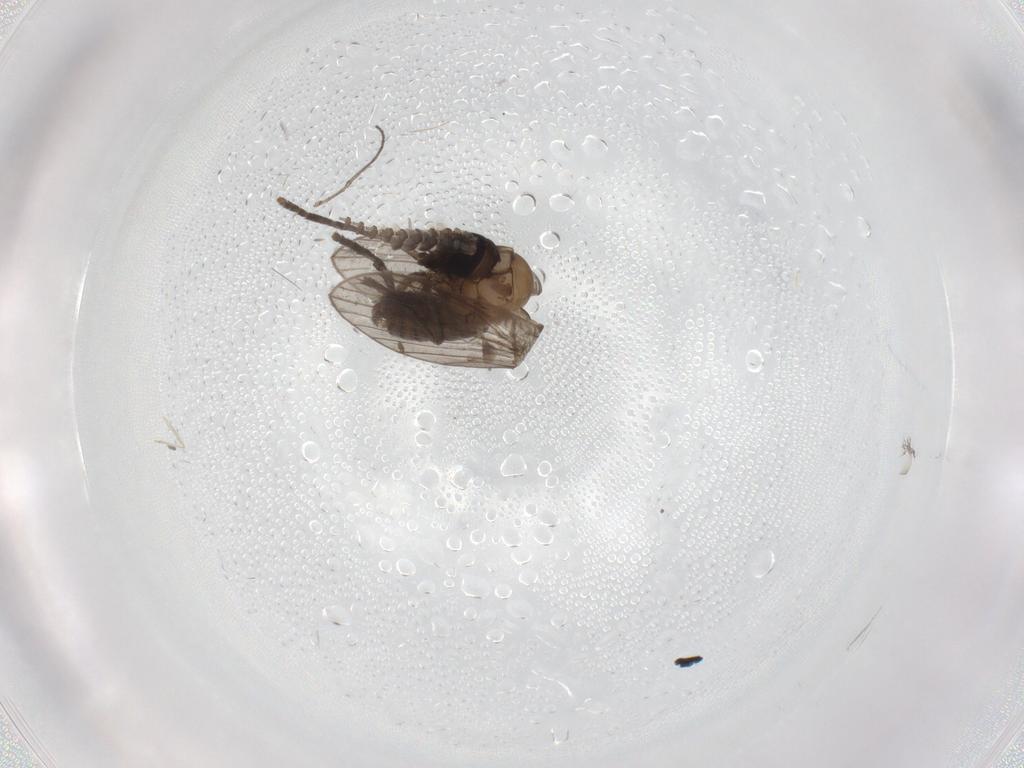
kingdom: Animalia
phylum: Arthropoda
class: Insecta
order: Diptera
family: Psychodidae
